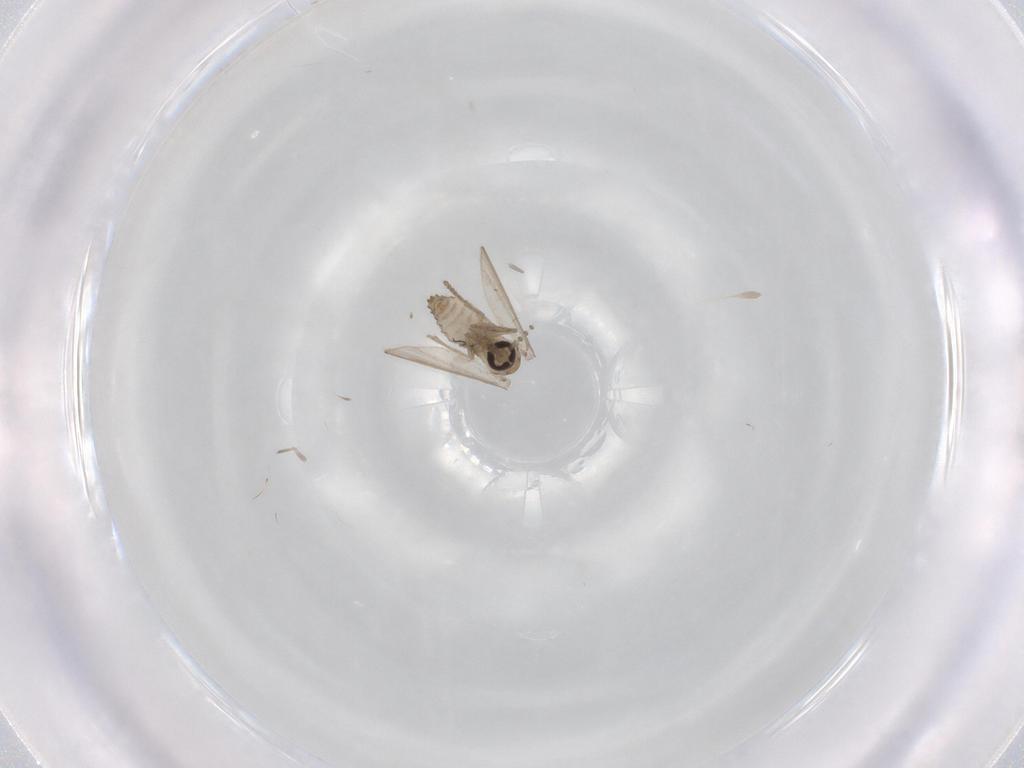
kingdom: Animalia
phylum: Arthropoda
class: Insecta
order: Diptera
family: Psychodidae
